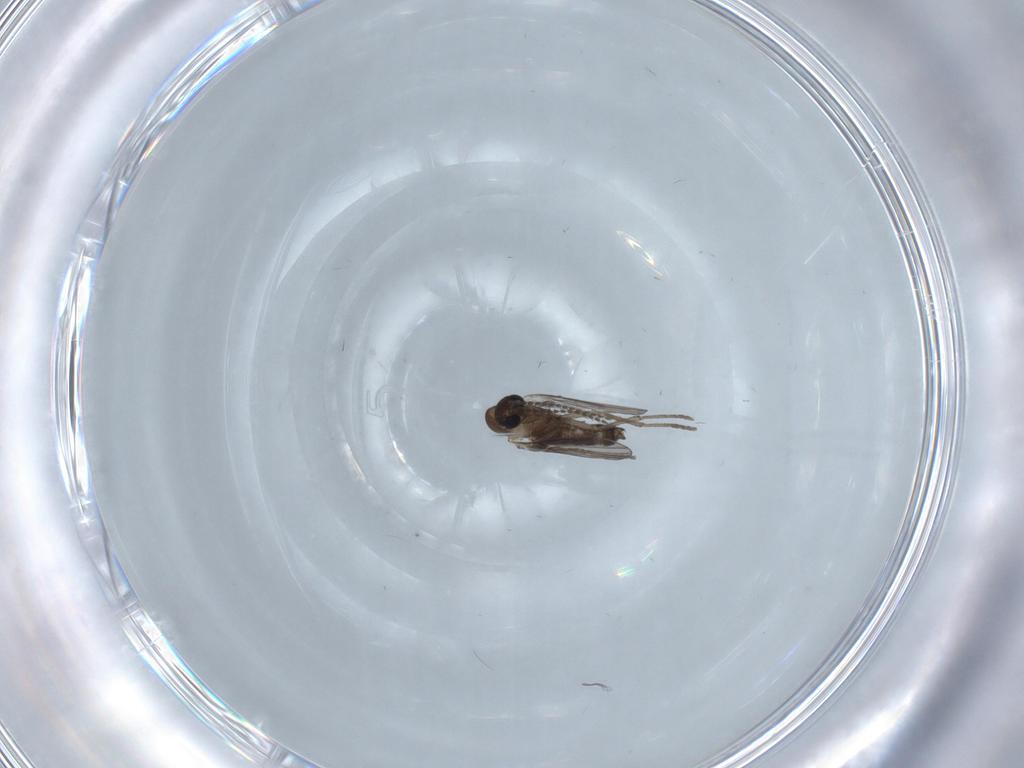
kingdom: Animalia
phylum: Arthropoda
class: Insecta
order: Diptera
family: Psychodidae
